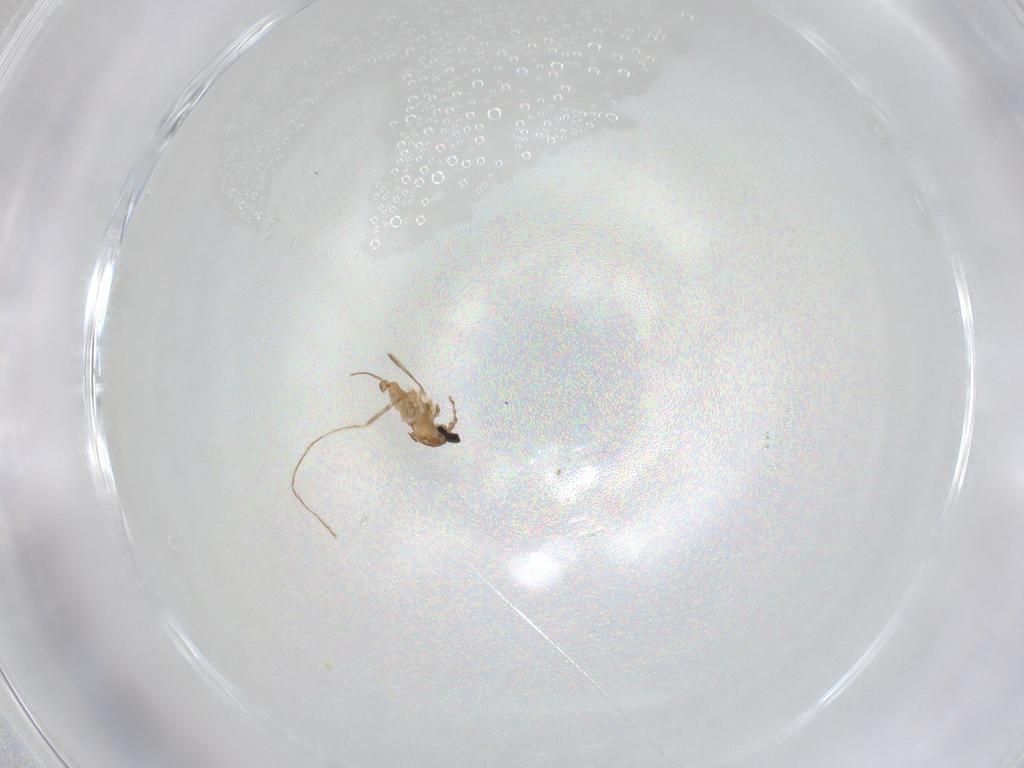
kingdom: Animalia
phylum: Arthropoda
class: Insecta
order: Diptera
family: Cecidomyiidae
